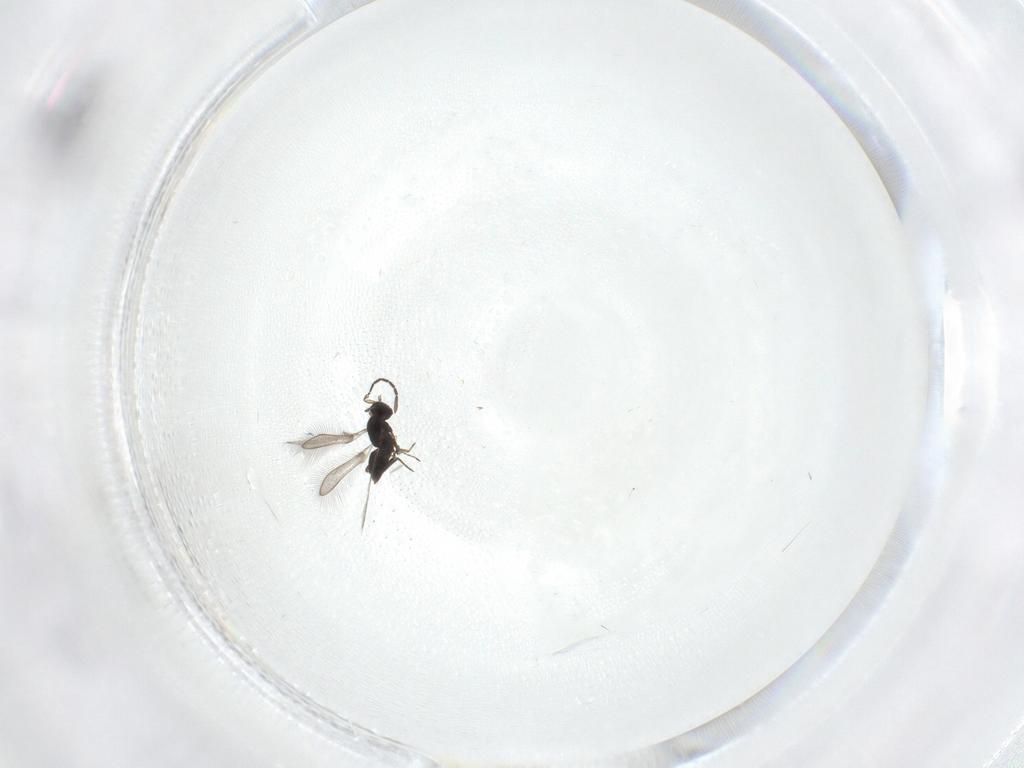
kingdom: Animalia
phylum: Arthropoda
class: Insecta
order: Hymenoptera
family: Mymaridae
